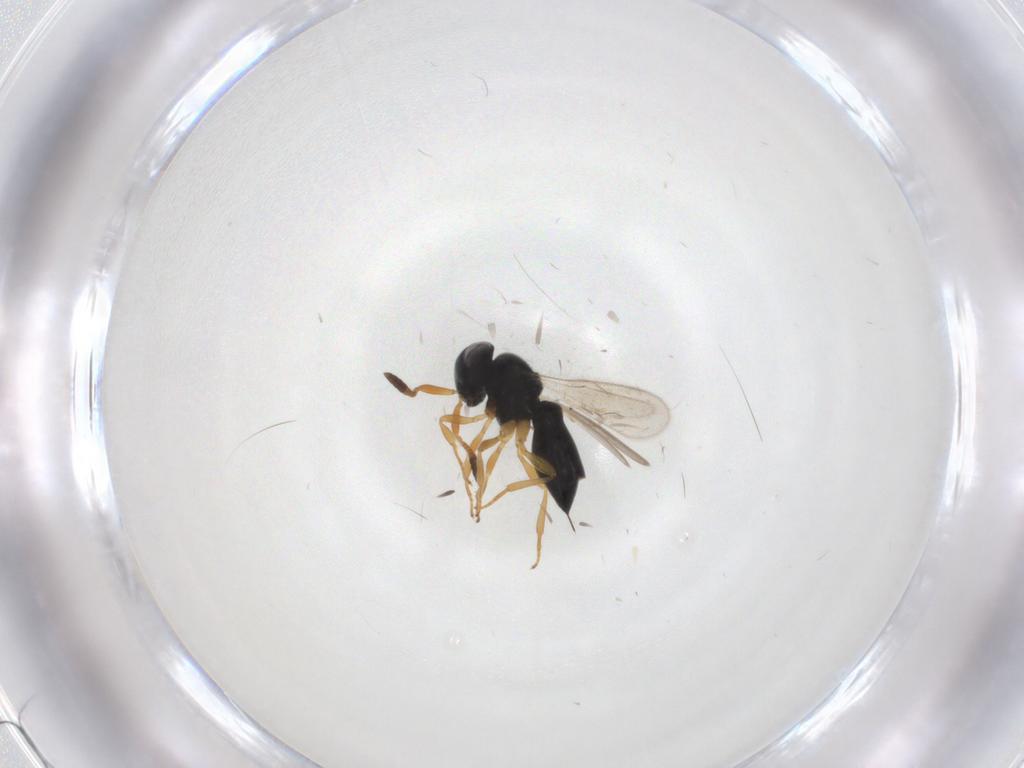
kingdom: Animalia
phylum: Arthropoda
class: Insecta
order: Hymenoptera
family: Scelionidae
